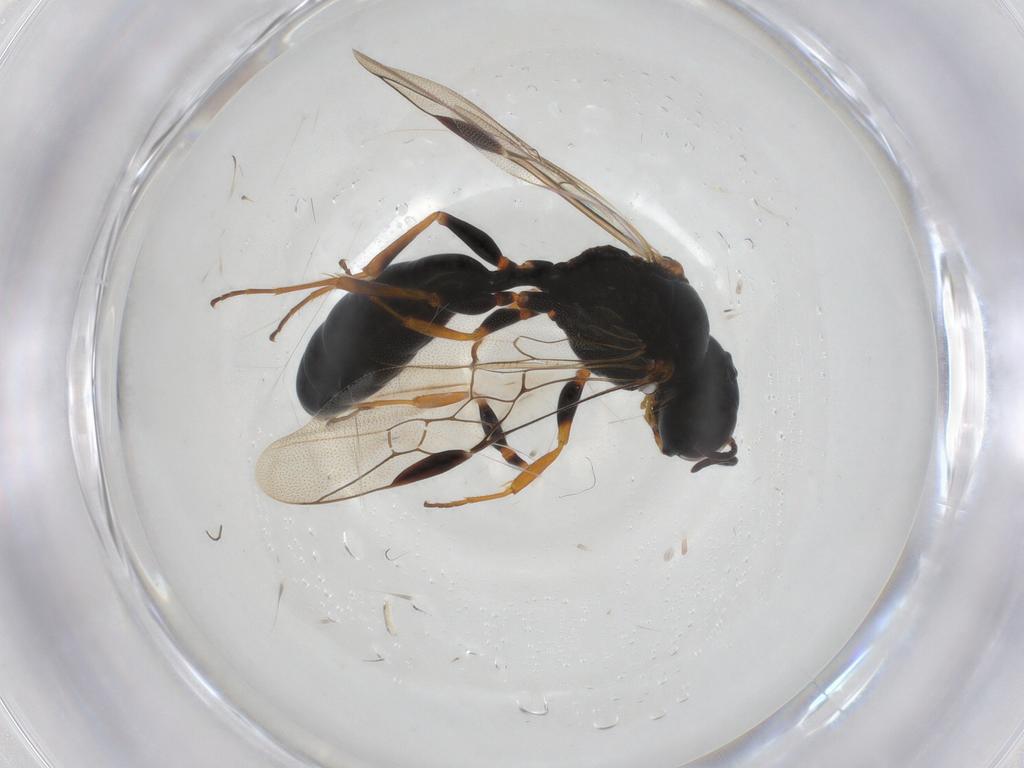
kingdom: Animalia
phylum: Arthropoda
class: Insecta
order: Hymenoptera
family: Crabronidae
